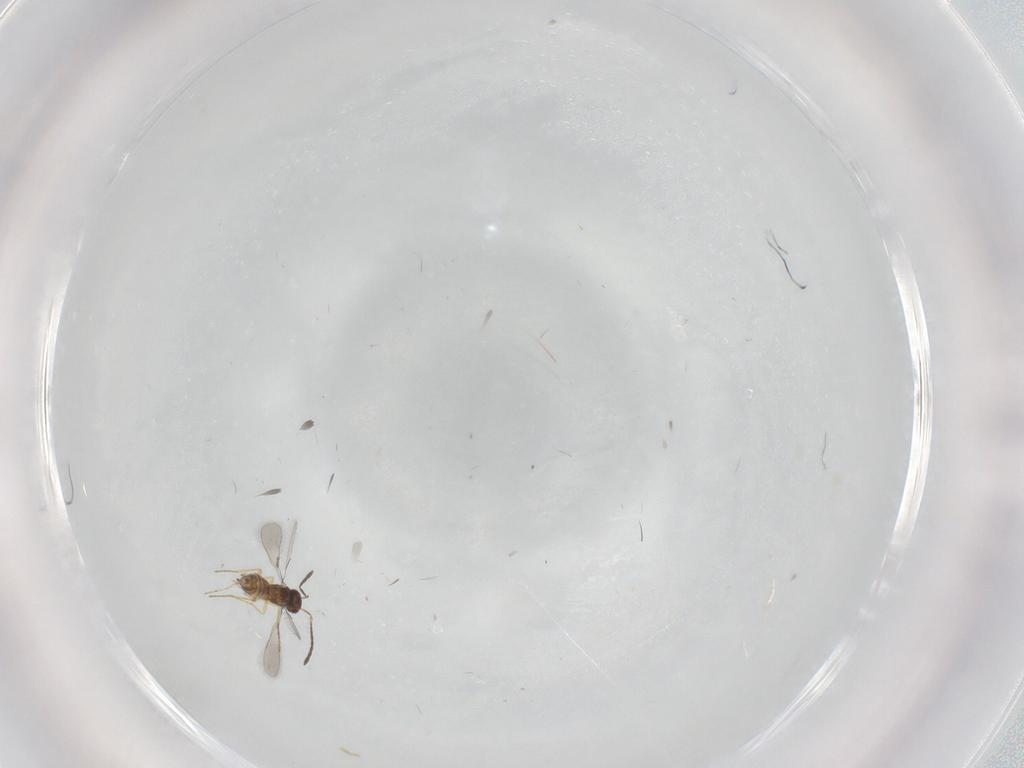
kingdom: Animalia
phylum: Arthropoda
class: Insecta
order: Hymenoptera
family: Mymaridae
